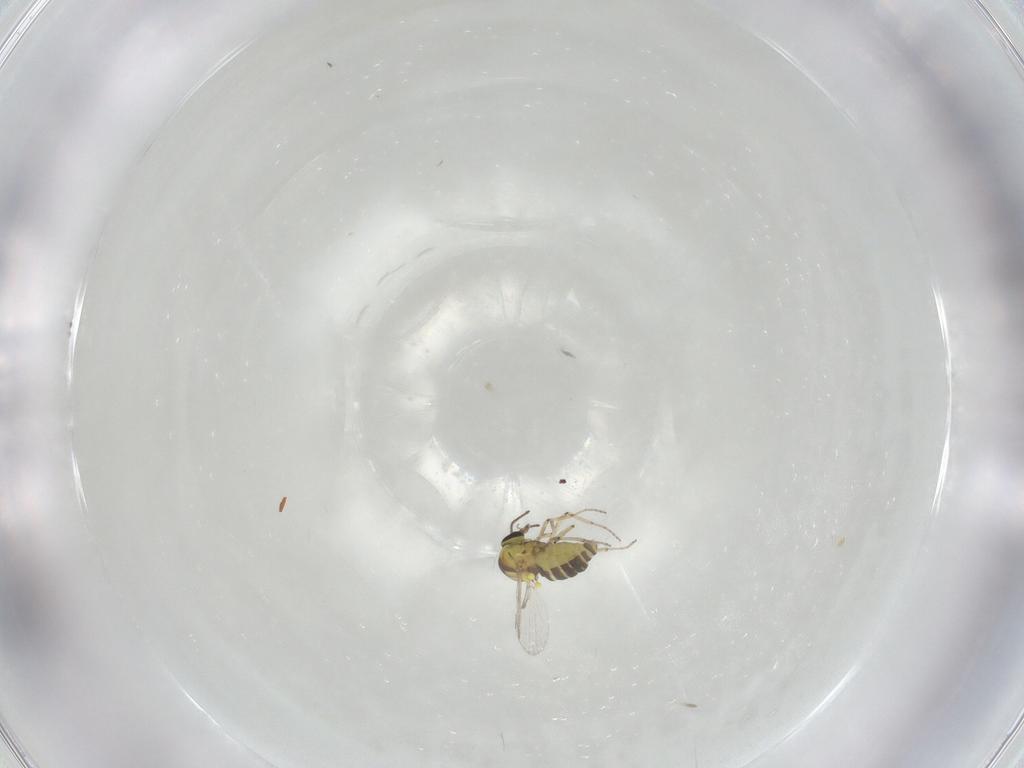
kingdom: Animalia
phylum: Arthropoda
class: Insecta
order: Diptera
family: Ceratopogonidae
